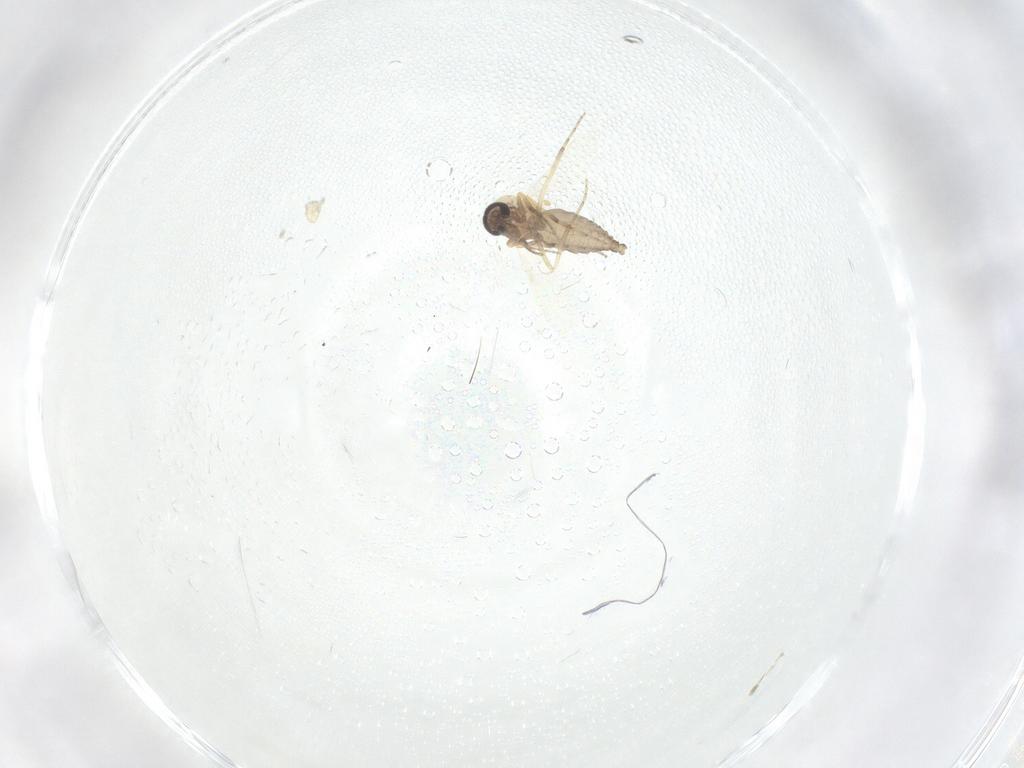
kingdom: Animalia
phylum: Arthropoda
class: Insecta
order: Diptera
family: Ceratopogonidae
